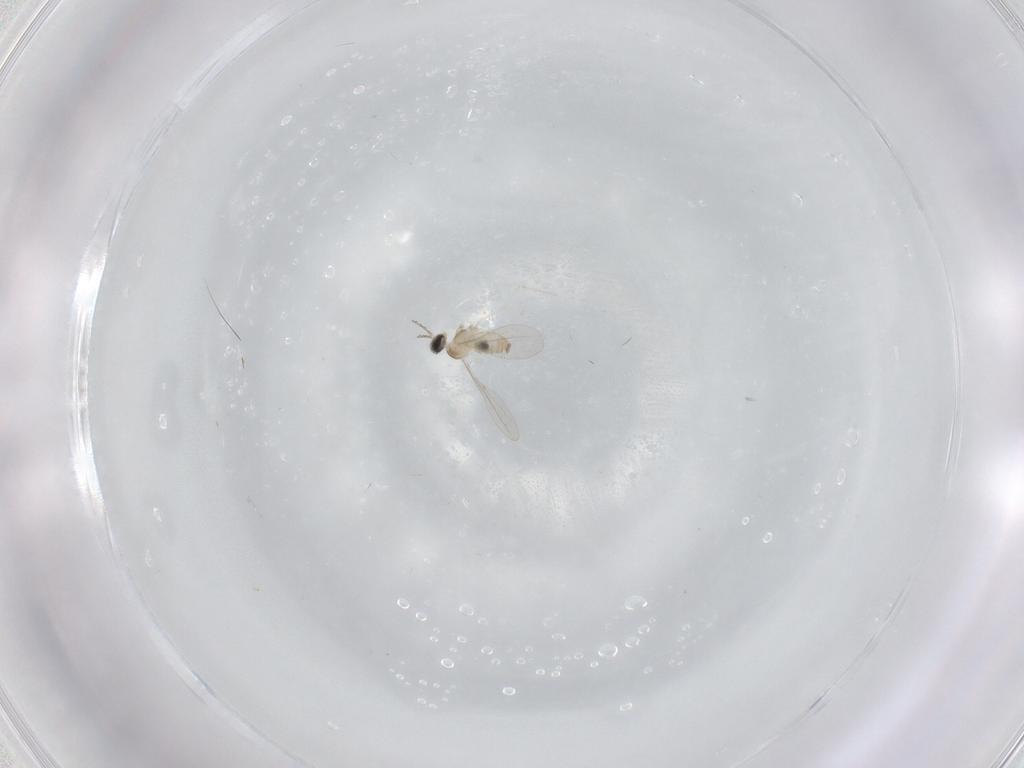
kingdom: Animalia
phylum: Arthropoda
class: Insecta
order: Diptera
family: Cecidomyiidae
